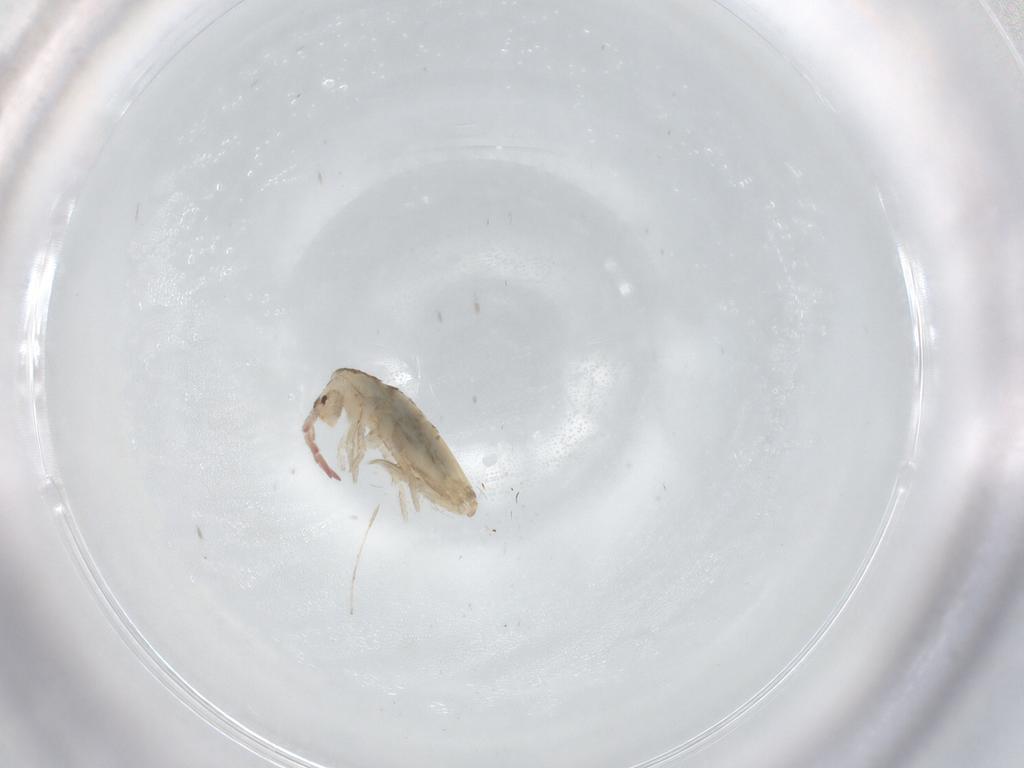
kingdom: Animalia
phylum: Arthropoda
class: Collembola
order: Entomobryomorpha
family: Entomobryidae
